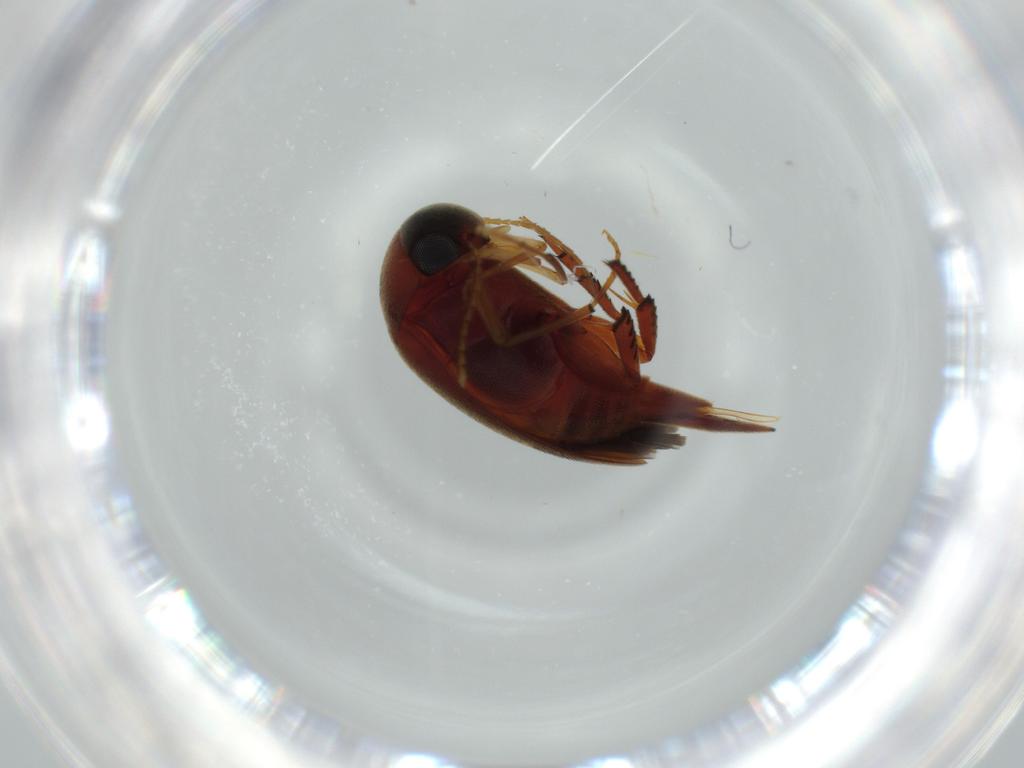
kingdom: Animalia
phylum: Arthropoda
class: Insecta
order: Coleoptera
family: Mordellidae
